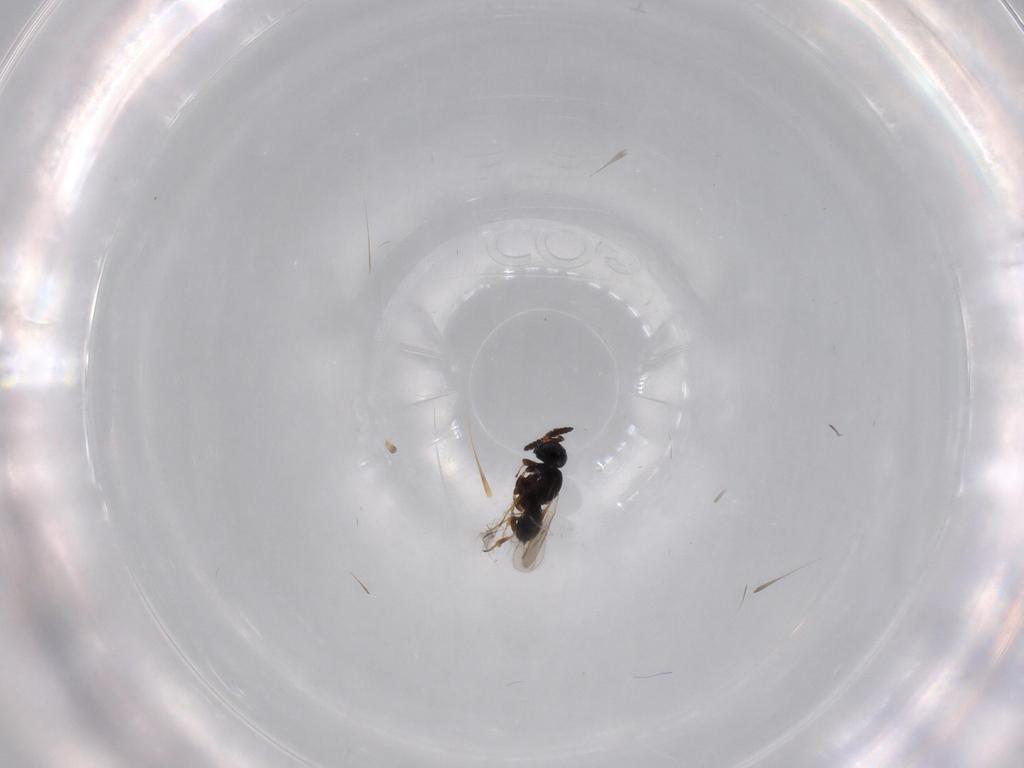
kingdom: Animalia
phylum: Arthropoda
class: Insecta
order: Hymenoptera
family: Scelionidae
